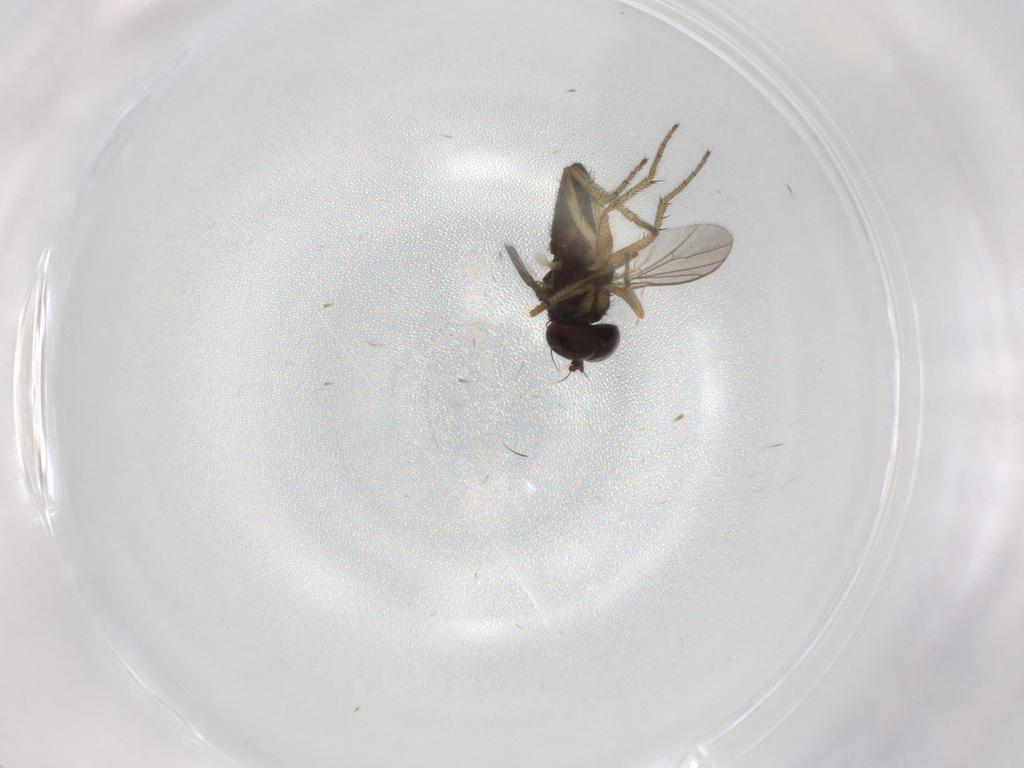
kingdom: Animalia
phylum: Arthropoda
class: Insecta
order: Diptera
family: Dolichopodidae
